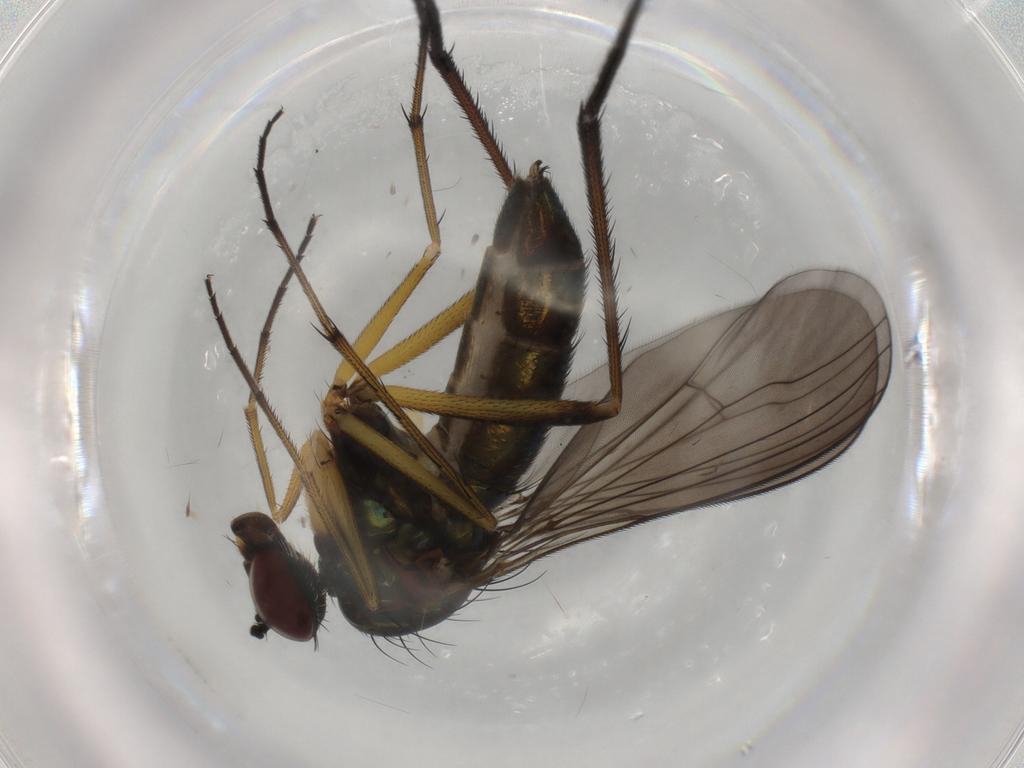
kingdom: Animalia
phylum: Arthropoda
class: Insecta
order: Diptera
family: Dolichopodidae
